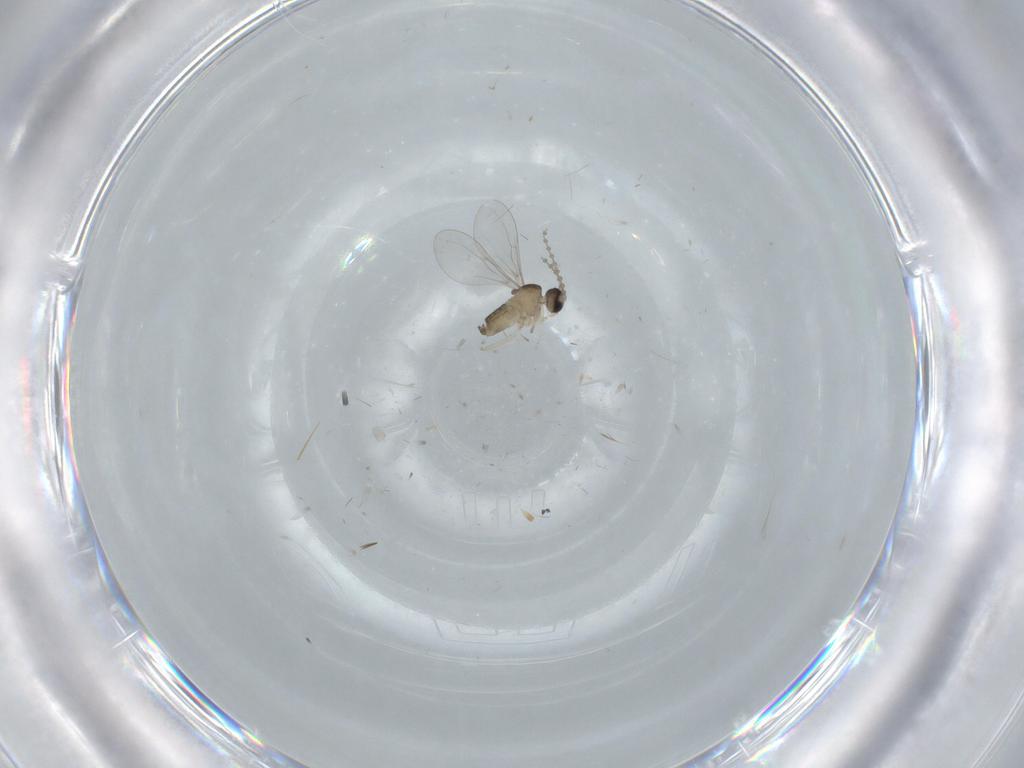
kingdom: Animalia
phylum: Arthropoda
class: Insecta
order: Diptera
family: Cecidomyiidae
